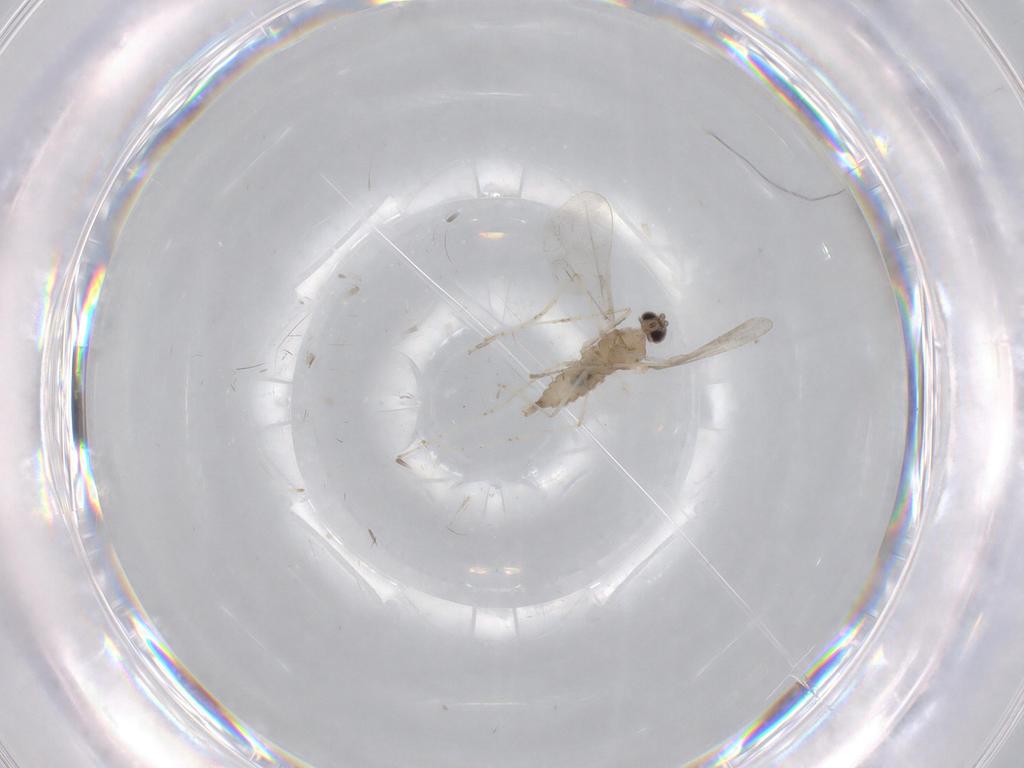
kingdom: Animalia
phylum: Arthropoda
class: Insecta
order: Diptera
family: Cecidomyiidae
